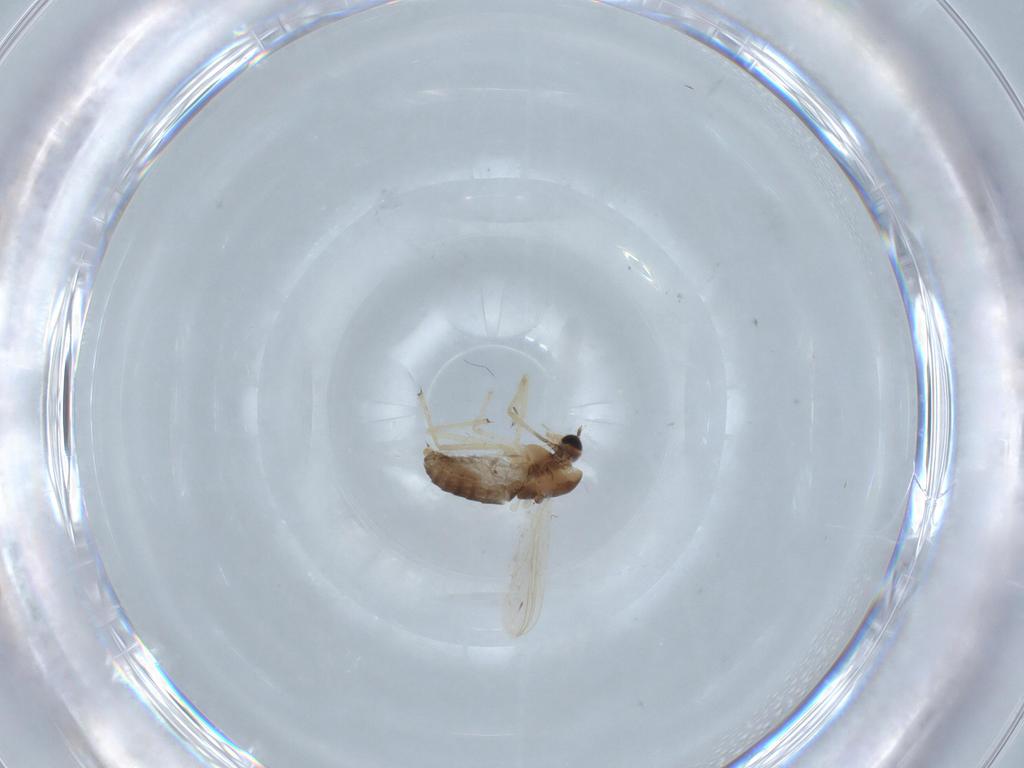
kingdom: Animalia
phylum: Arthropoda
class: Insecta
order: Diptera
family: Chironomidae
